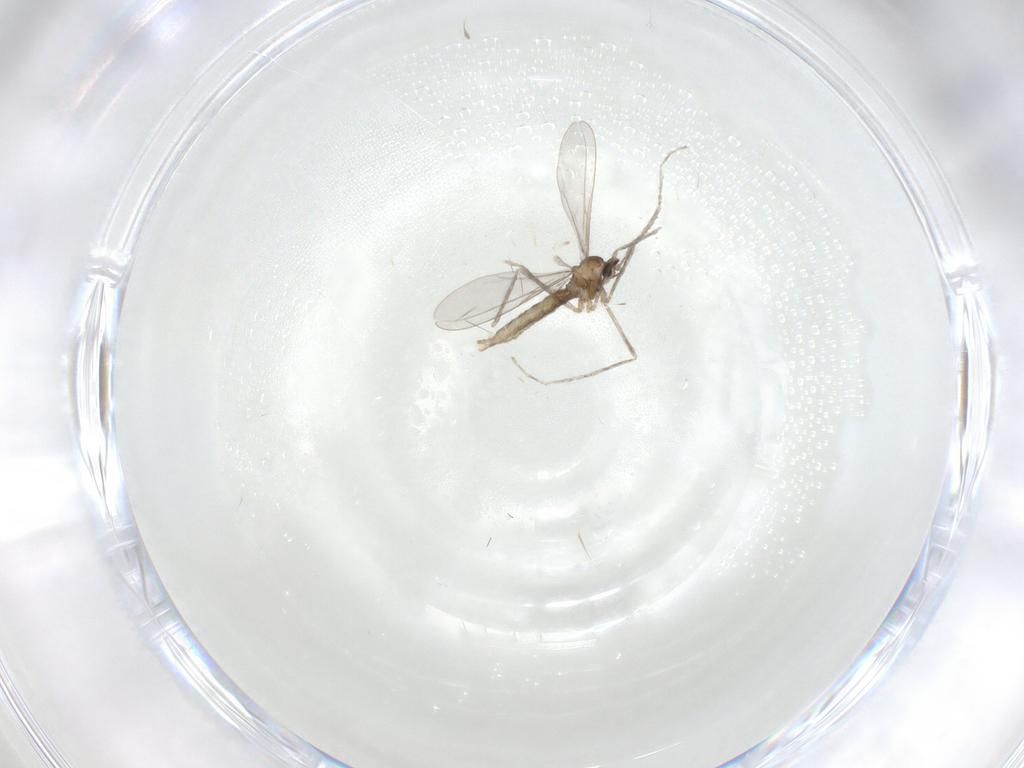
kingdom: Animalia
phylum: Arthropoda
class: Insecta
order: Diptera
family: Cecidomyiidae
